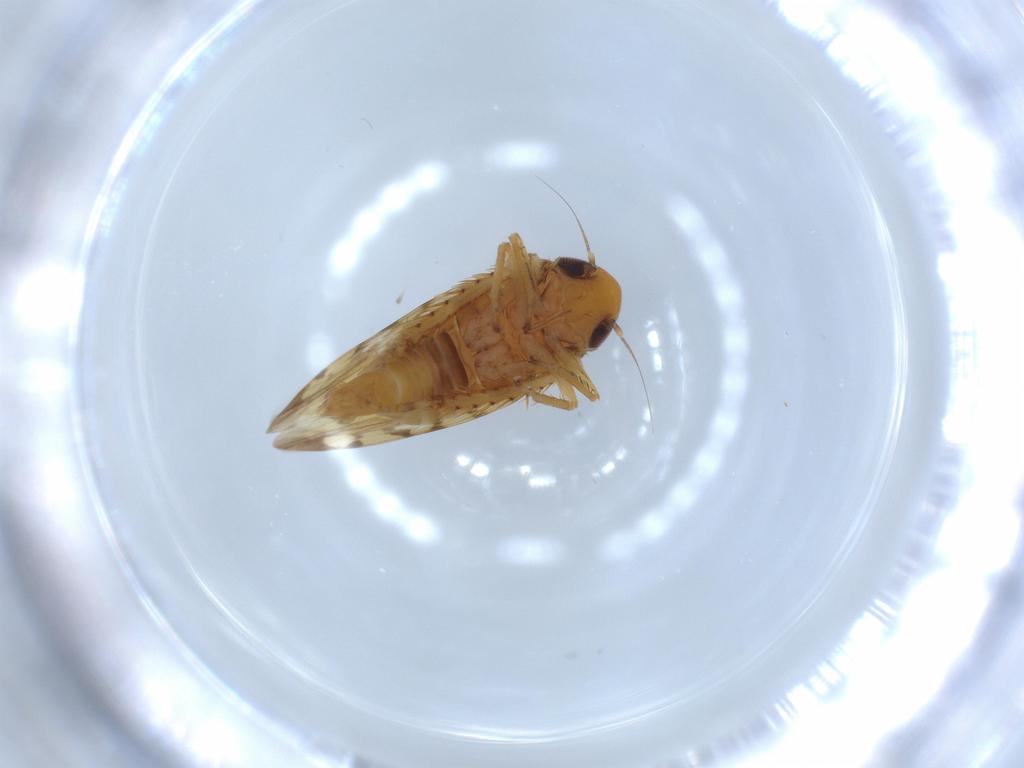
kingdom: Animalia
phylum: Arthropoda
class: Insecta
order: Hemiptera
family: Cicadellidae
